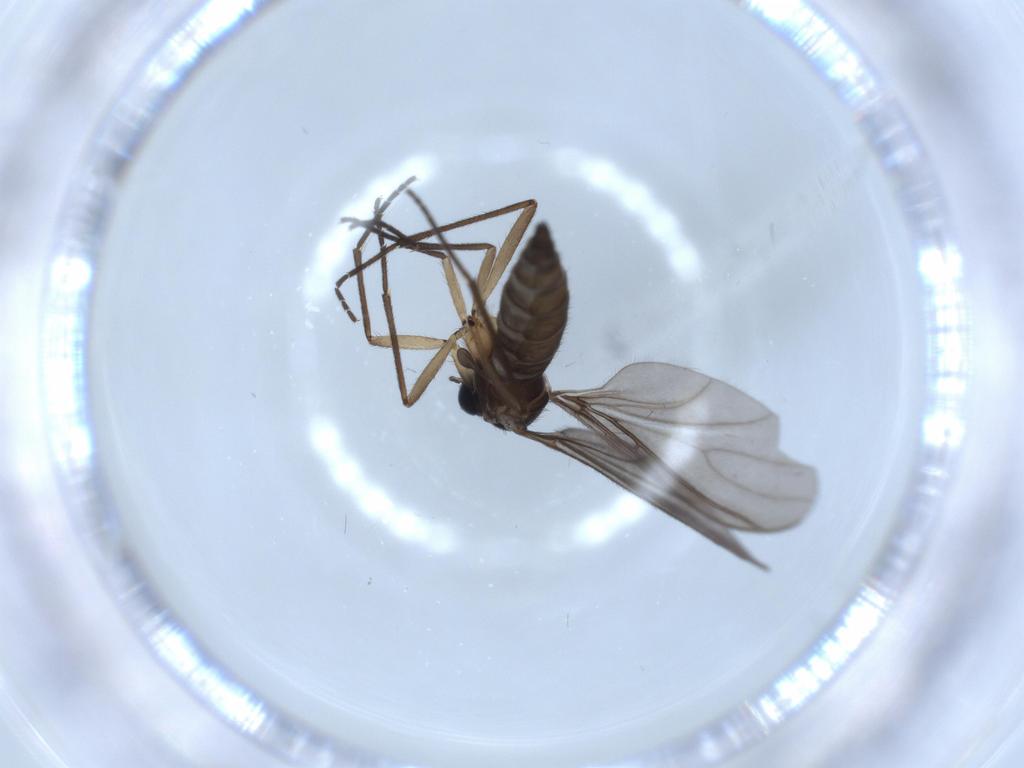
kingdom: Animalia
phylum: Arthropoda
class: Insecta
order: Diptera
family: Sciaridae
